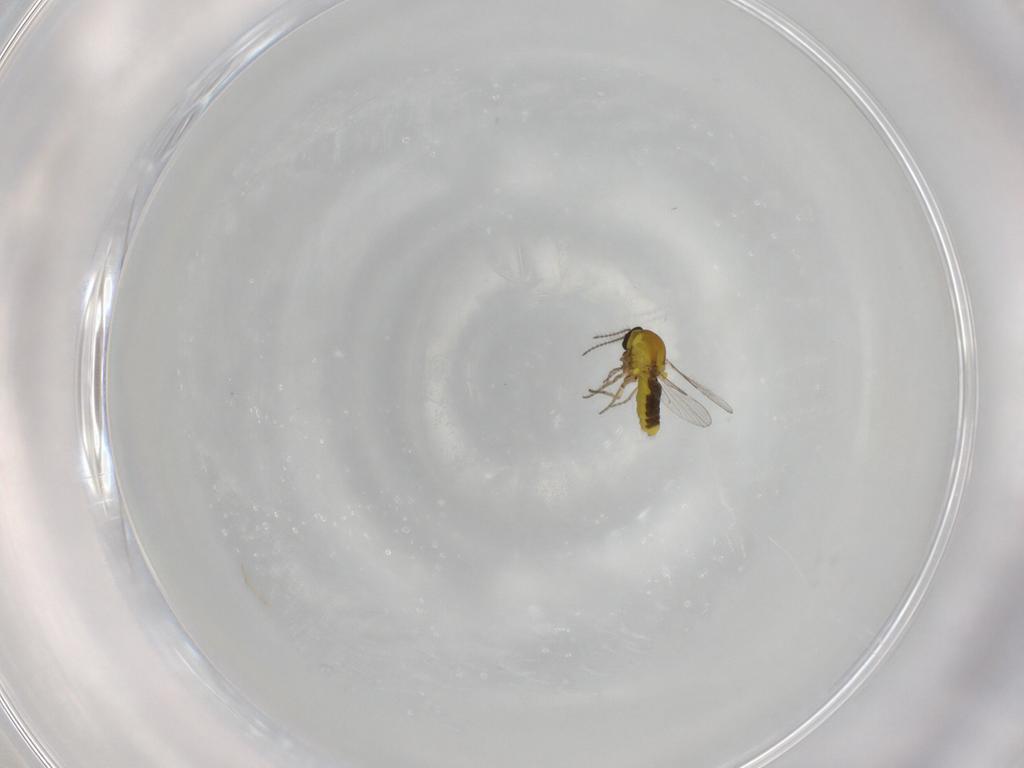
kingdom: Animalia
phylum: Arthropoda
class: Insecta
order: Diptera
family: Ceratopogonidae
